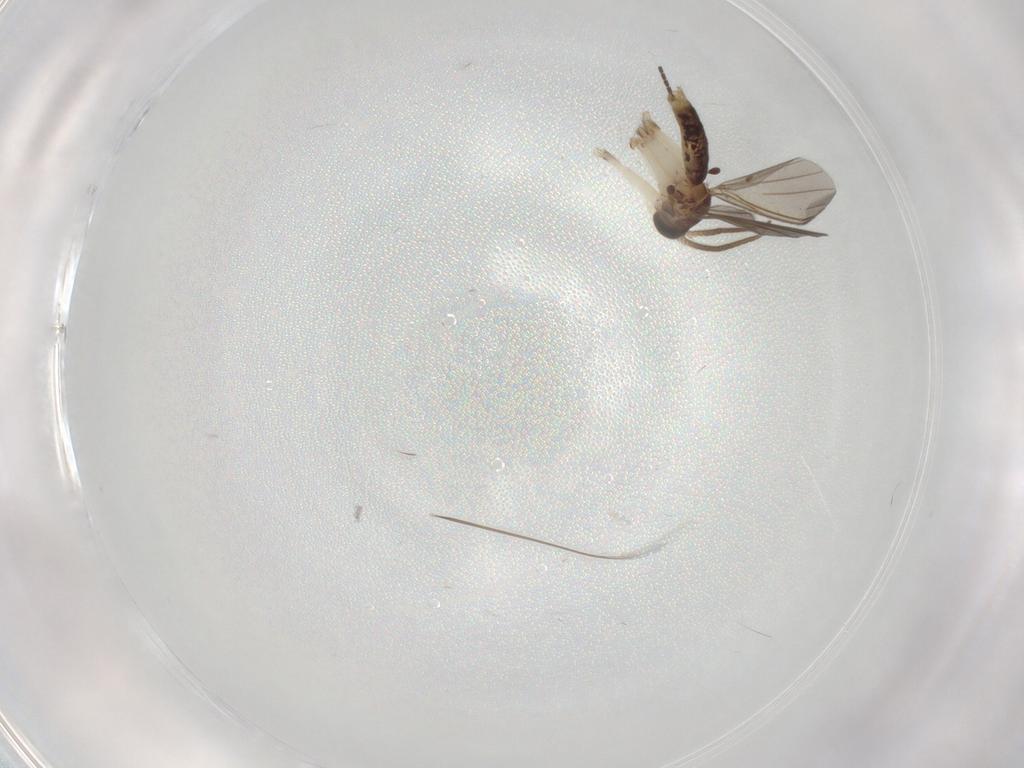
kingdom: Animalia
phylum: Arthropoda
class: Insecta
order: Diptera
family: Mycetophilidae
